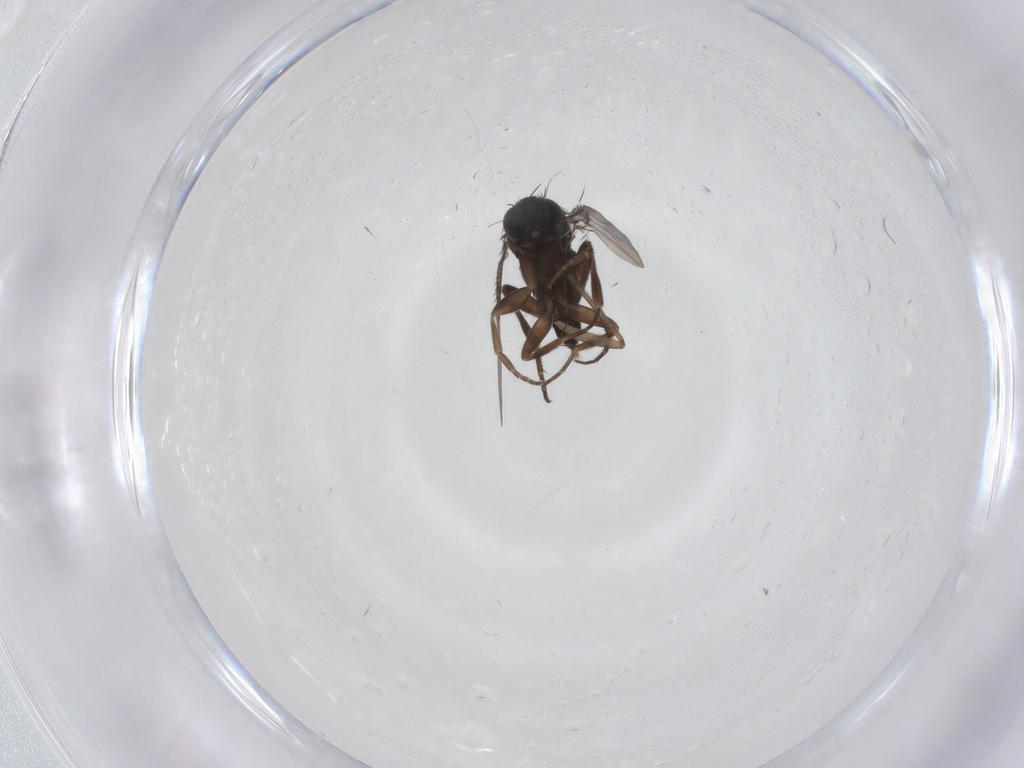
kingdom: Animalia
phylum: Arthropoda
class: Insecta
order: Diptera
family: Phoridae
